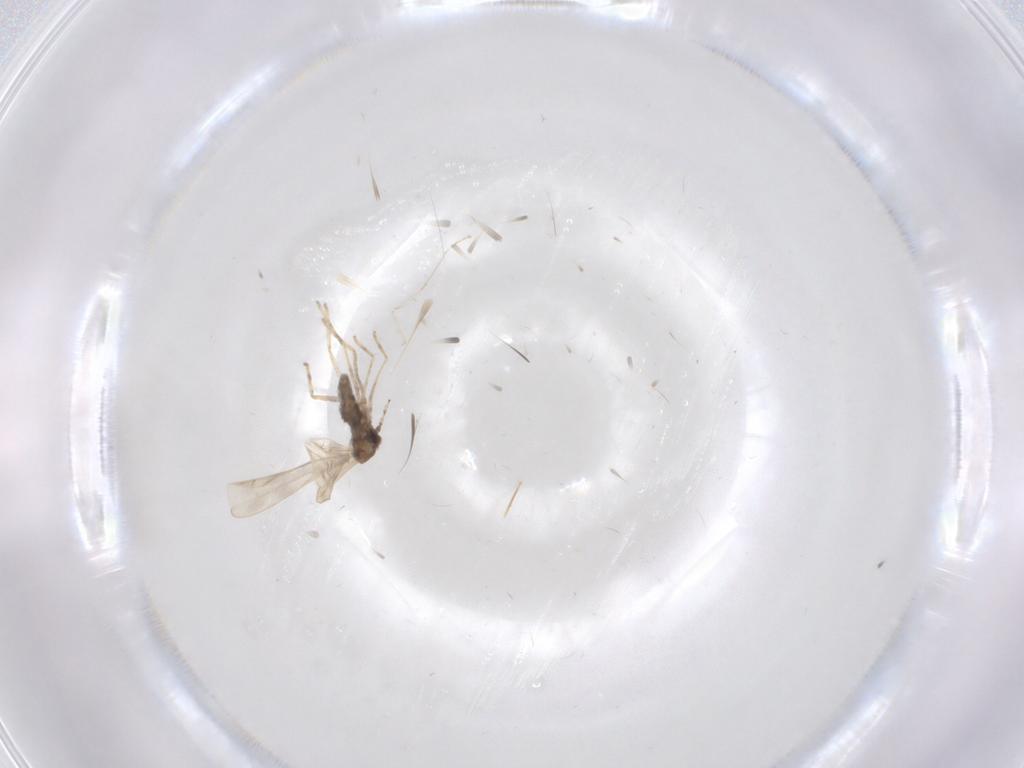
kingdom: Animalia
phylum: Arthropoda
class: Insecta
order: Diptera
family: Cecidomyiidae
